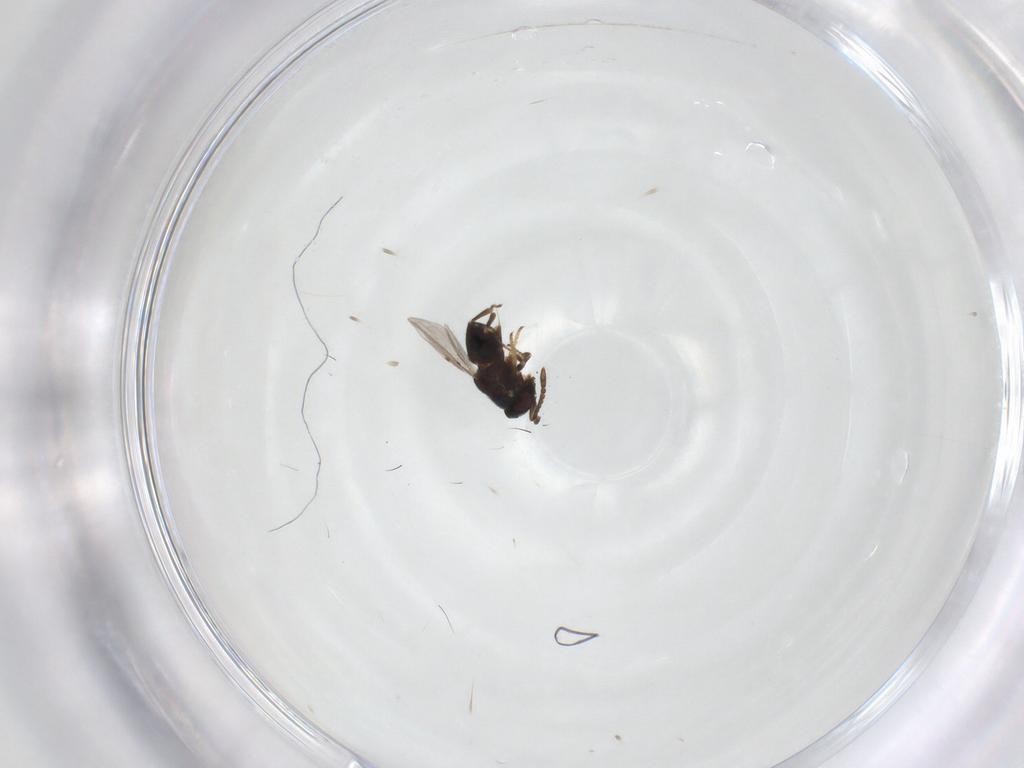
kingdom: Animalia
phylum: Arthropoda
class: Insecta
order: Hymenoptera
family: Encyrtidae
